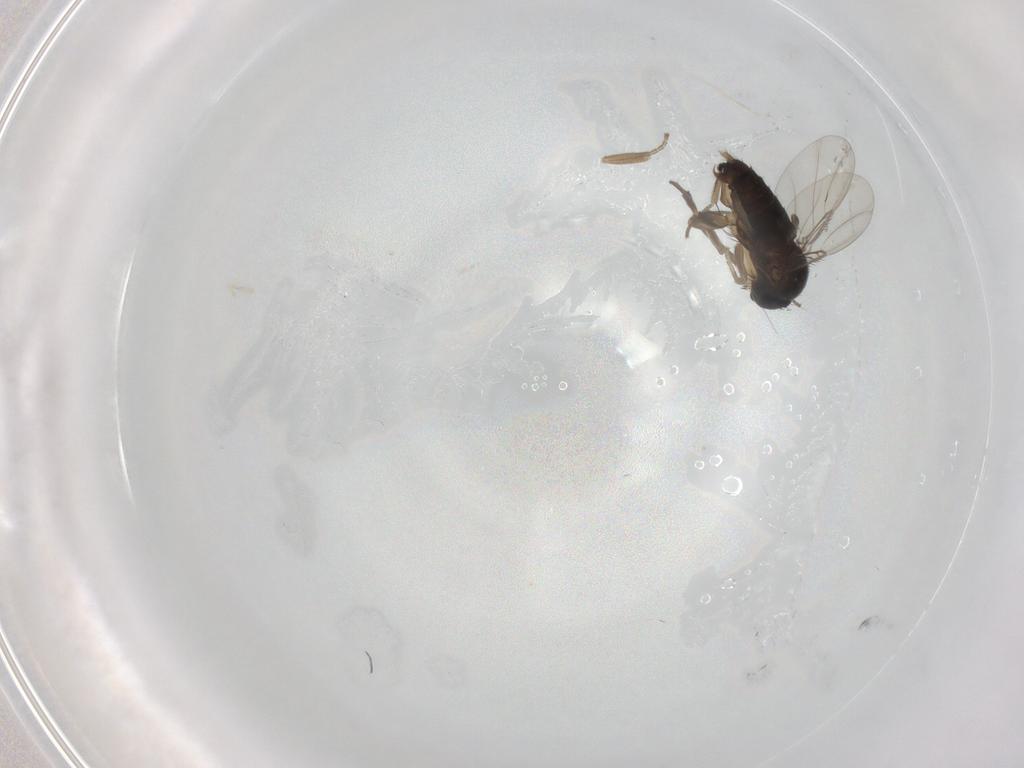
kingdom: Animalia
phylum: Arthropoda
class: Insecta
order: Diptera
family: Phoridae
